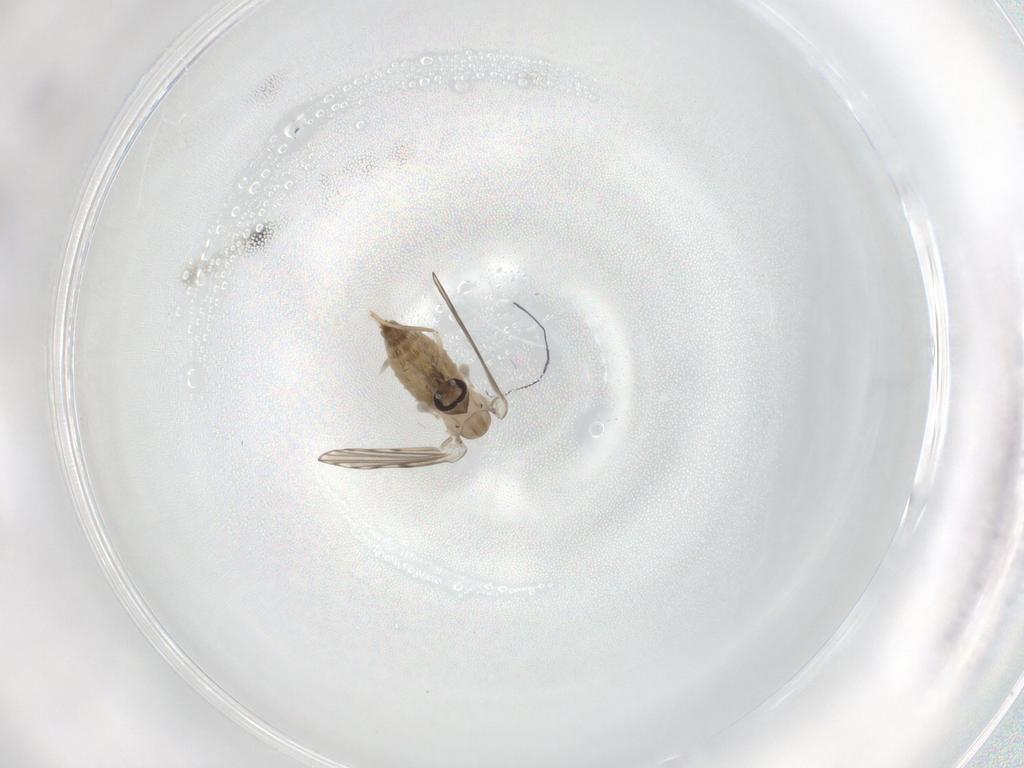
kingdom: Animalia
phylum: Arthropoda
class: Insecta
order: Diptera
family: Psychodidae
